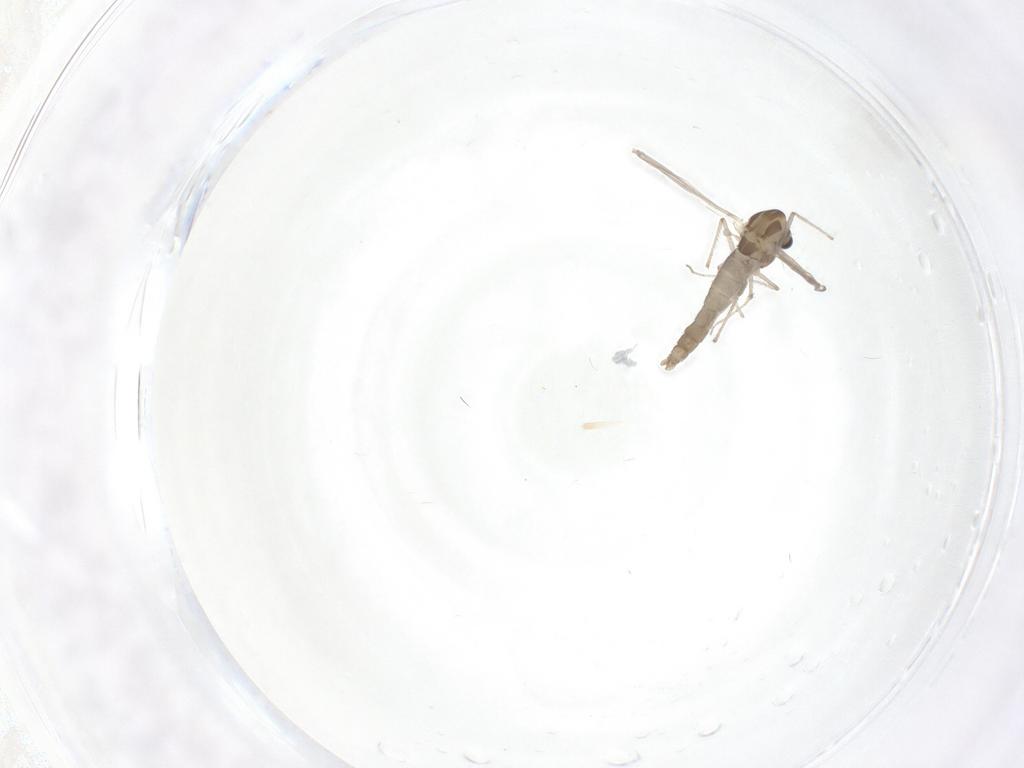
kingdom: Animalia
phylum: Arthropoda
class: Insecta
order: Diptera
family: Chironomidae
